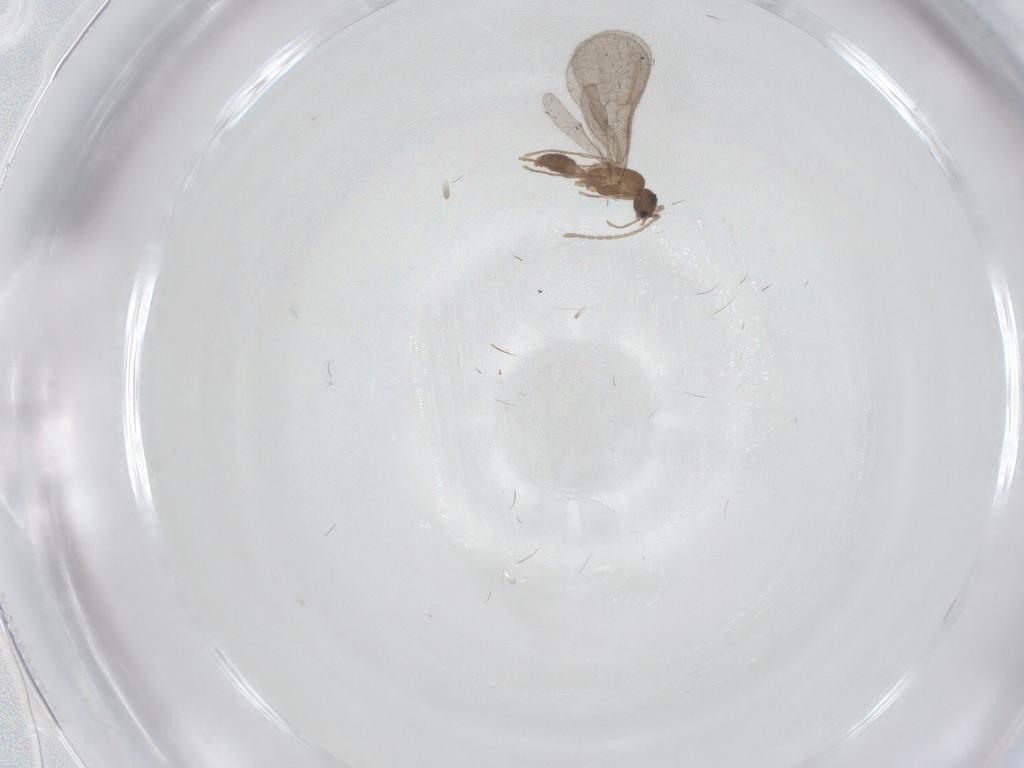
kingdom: Animalia
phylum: Arthropoda
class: Insecta
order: Hymenoptera
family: Formicidae
